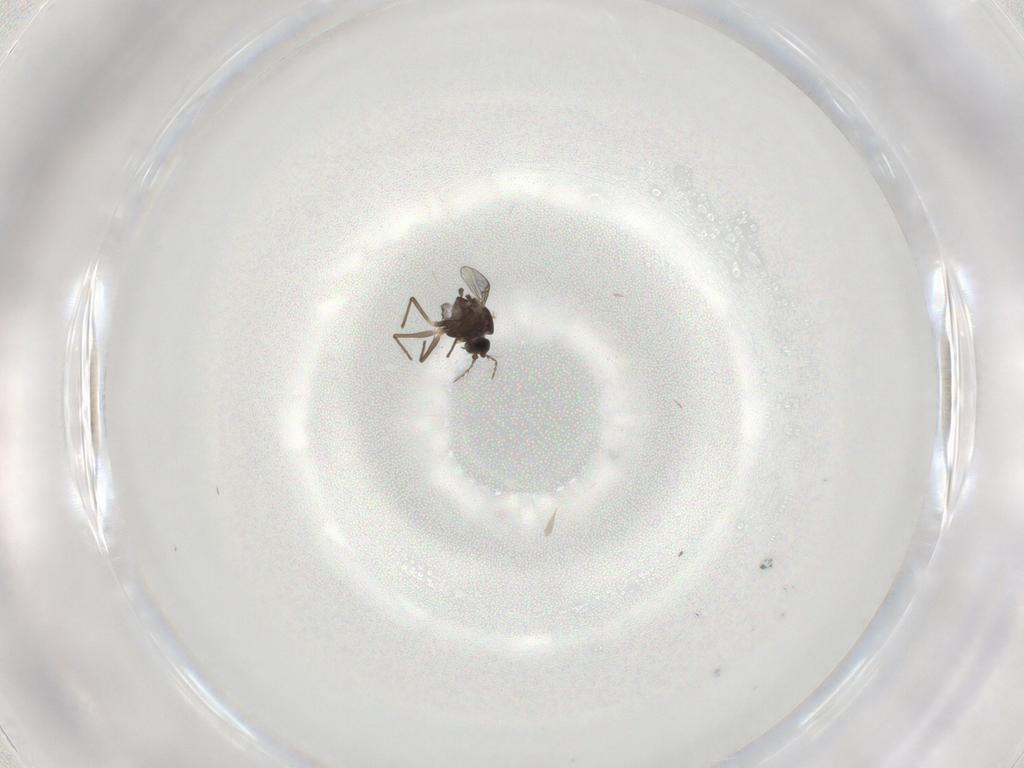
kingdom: Animalia
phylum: Arthropoda
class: Insecta
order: Diptera
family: Chironomidae
